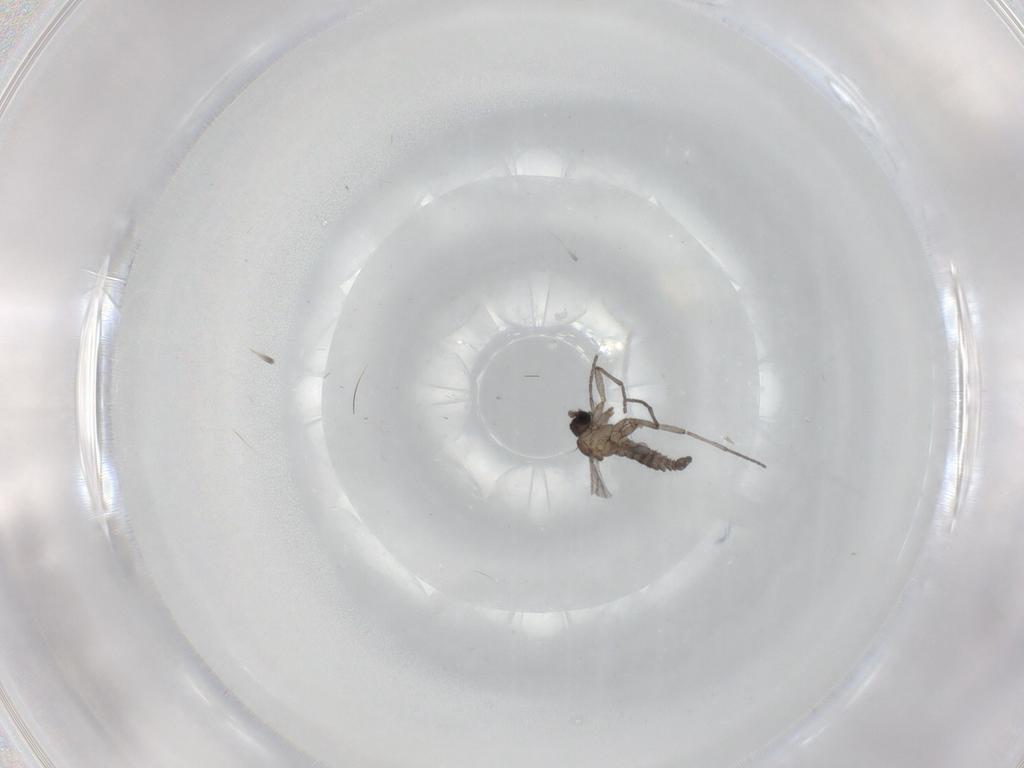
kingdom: Animalia
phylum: Arthropoda
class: Insecta
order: Diptera
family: Sciaridae
